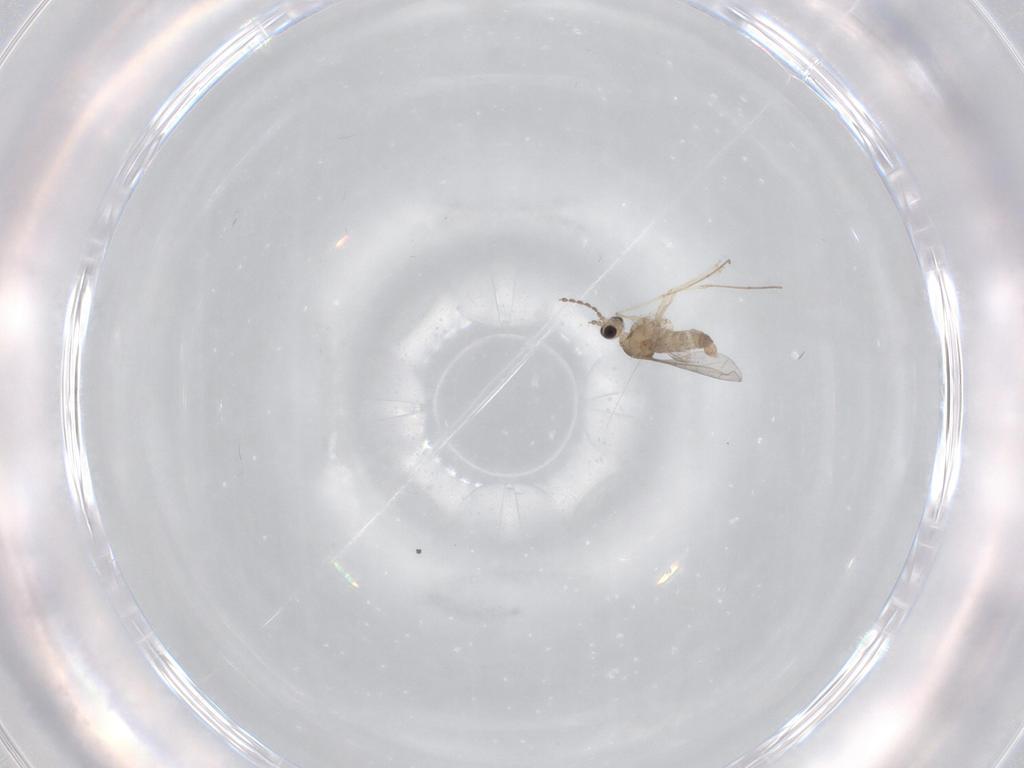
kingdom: Animalia
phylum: Arthropoda
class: Insecta
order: Diptera
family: Cecidomyiidae
